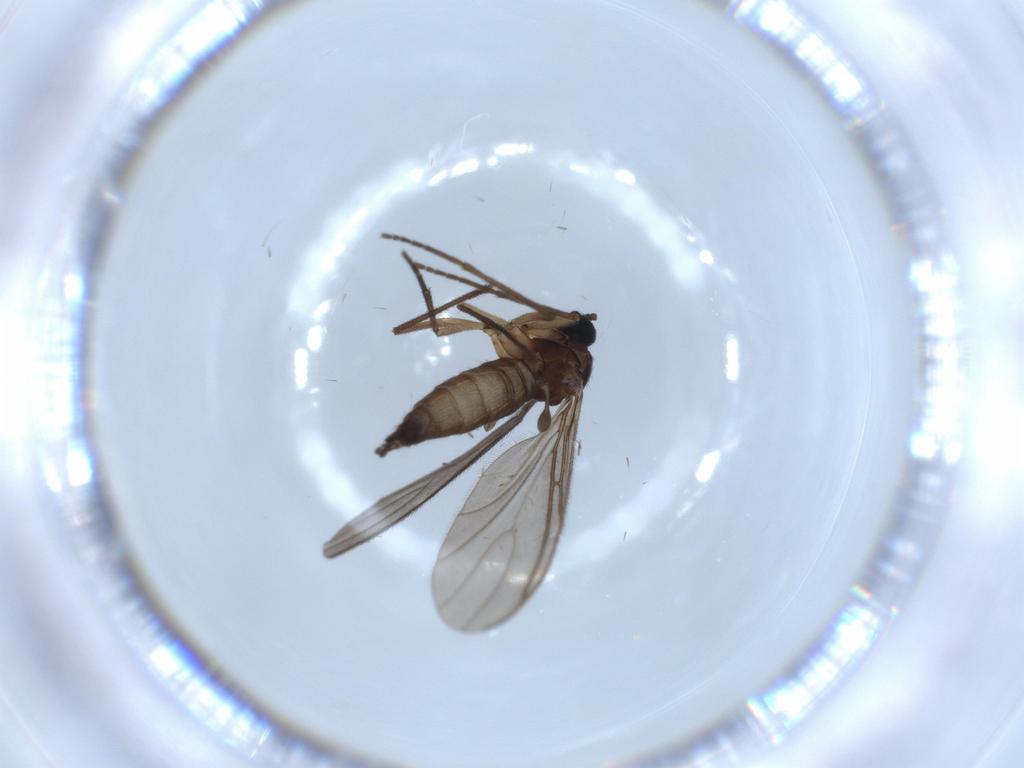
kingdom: Animalia
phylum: Arthropoda
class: Insecta
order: Diptera
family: Sciaridae
